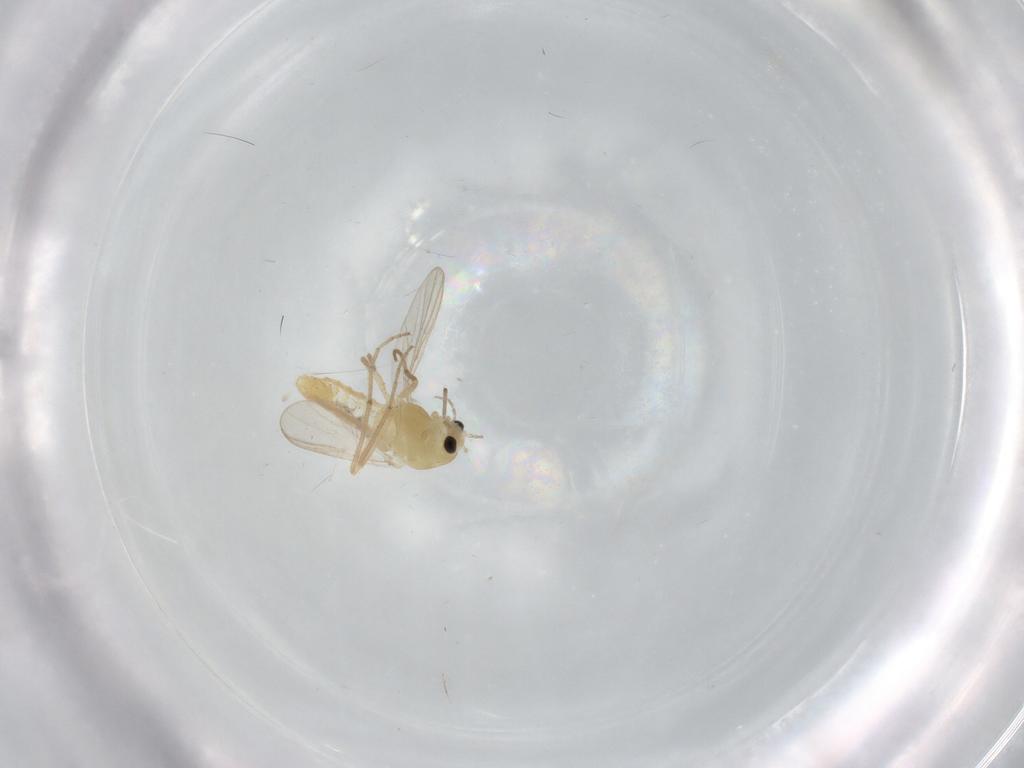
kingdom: Animalia
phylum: Arthropoda
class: Insecta
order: Diptera
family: Chironomidae
